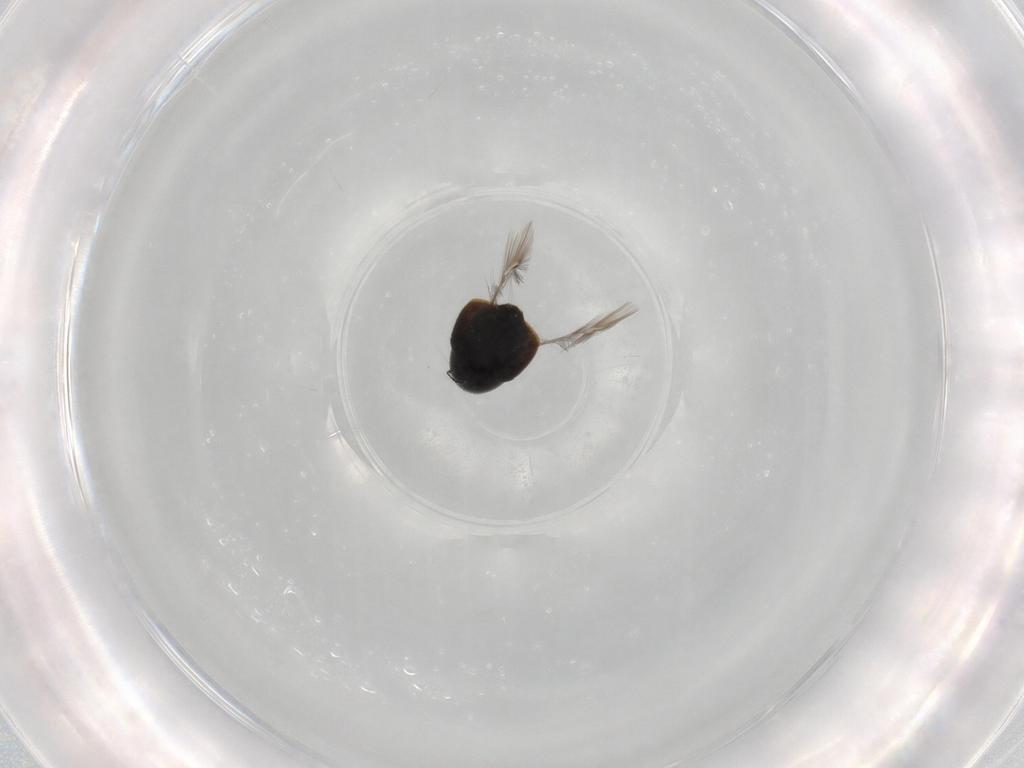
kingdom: Animalia
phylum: Arthropoda
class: Insecta
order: Coleoptera
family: Ptiliidae
